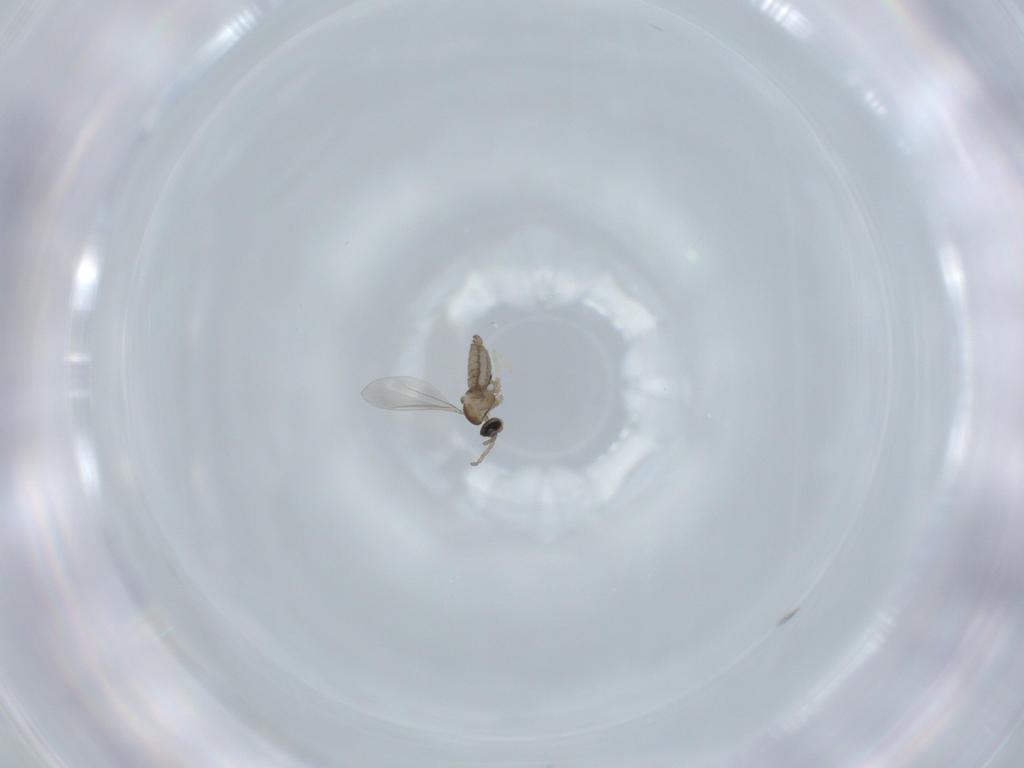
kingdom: Animalia
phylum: Arthropoda
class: Insecta
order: Diptera
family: Cecidomyiidae
